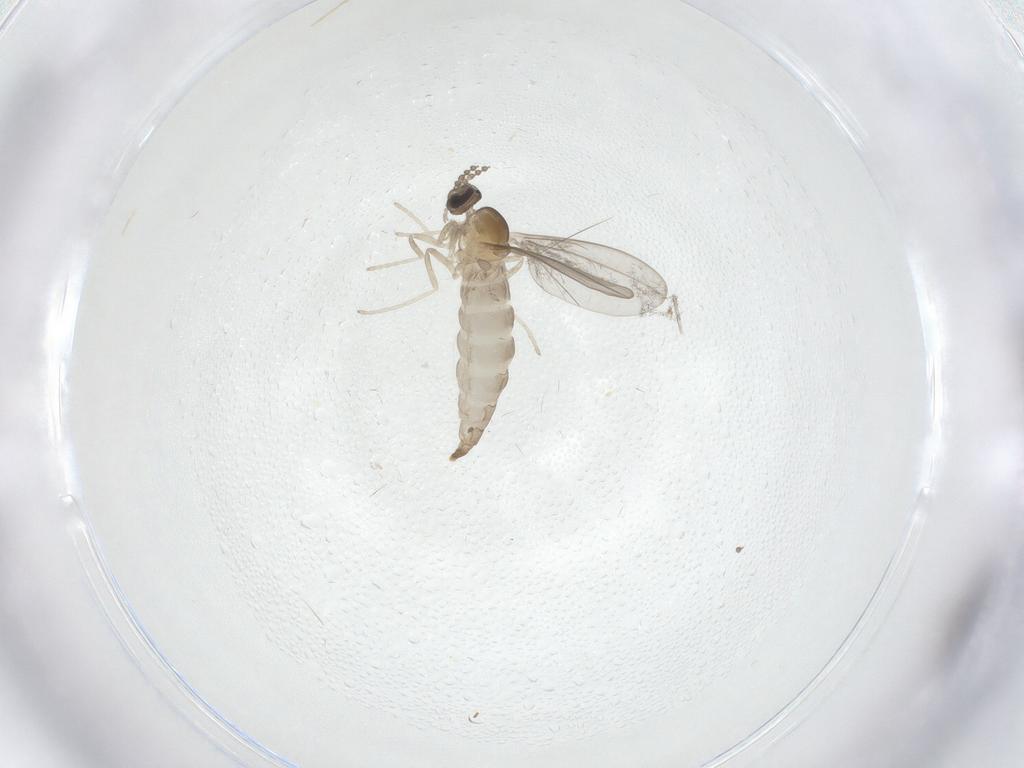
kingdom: Animalia
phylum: Arthropoda
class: Insecta
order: Diptera
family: Cecidomyiidae
